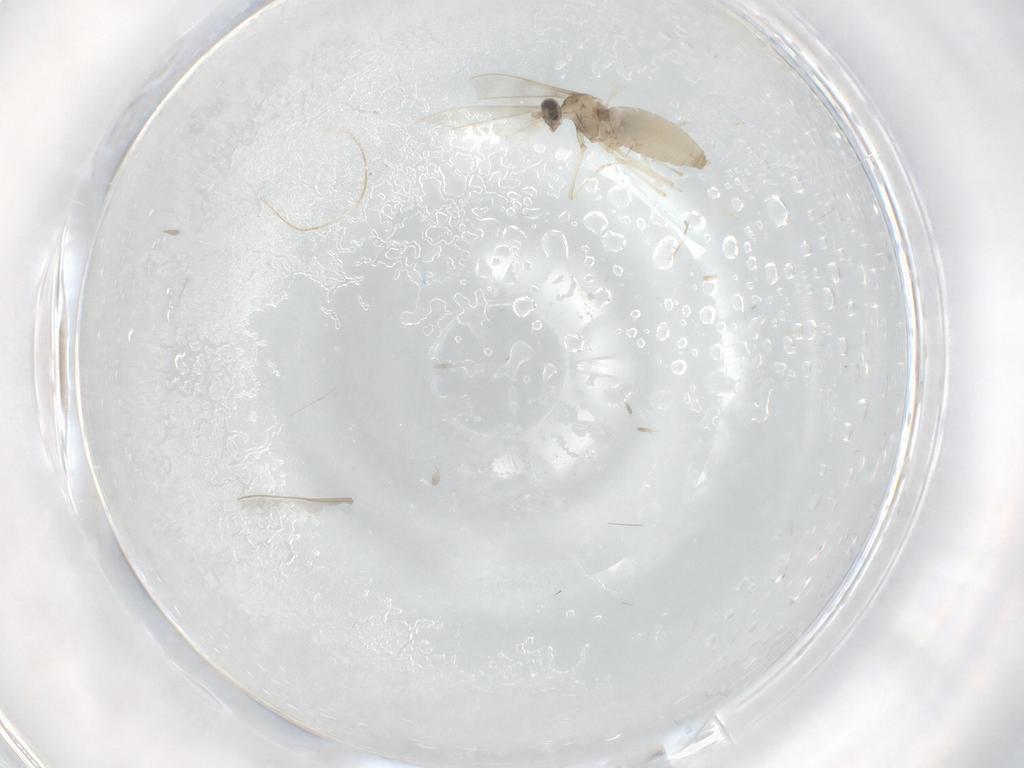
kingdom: Animalia
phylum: Arthropoda
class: Insecta
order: Diptera
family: Cecidomyiidae
